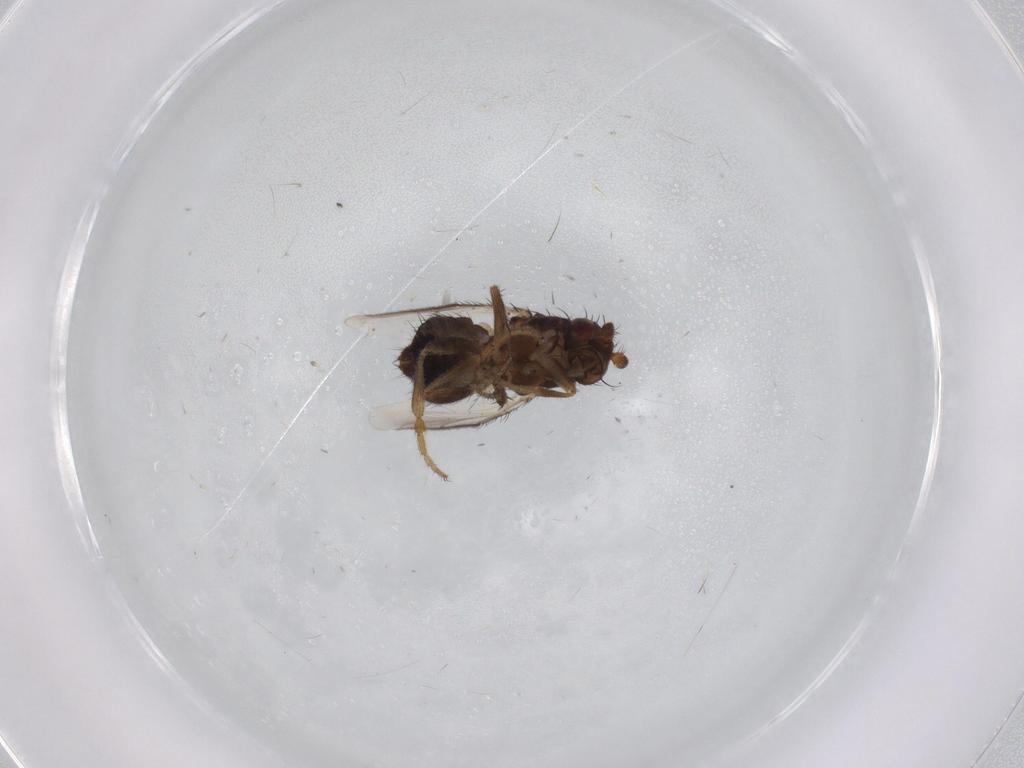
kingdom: Animalia
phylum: Arthropoda
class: Insecta
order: Diptera
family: Sphaeroceridae
